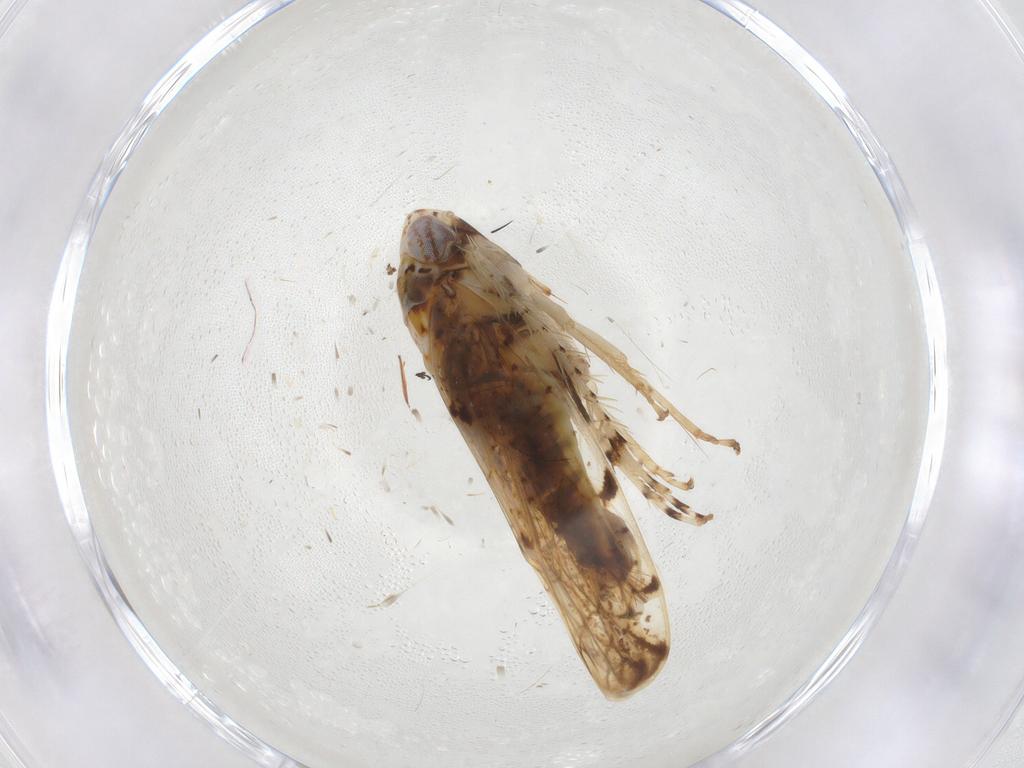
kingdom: Animalia
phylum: Arthropoda
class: Insecta
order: Hemiptera
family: Cicadellidae
